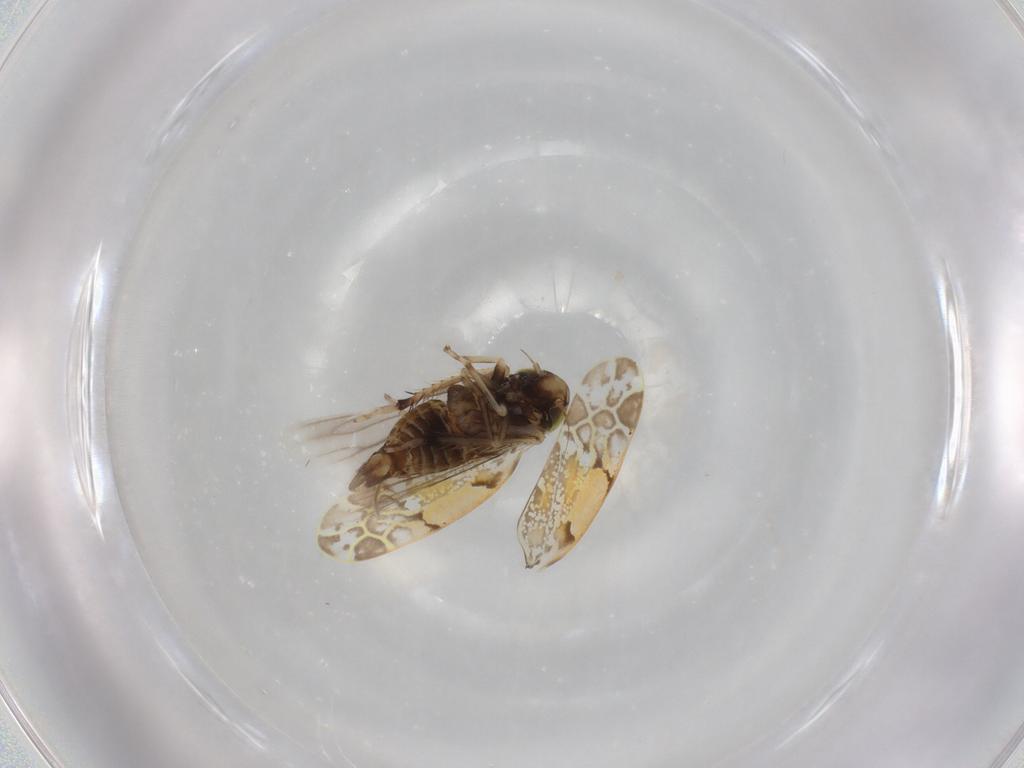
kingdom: Animalia
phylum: Arthropoda
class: Insecta
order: Hemiptera
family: Cicadellidae
